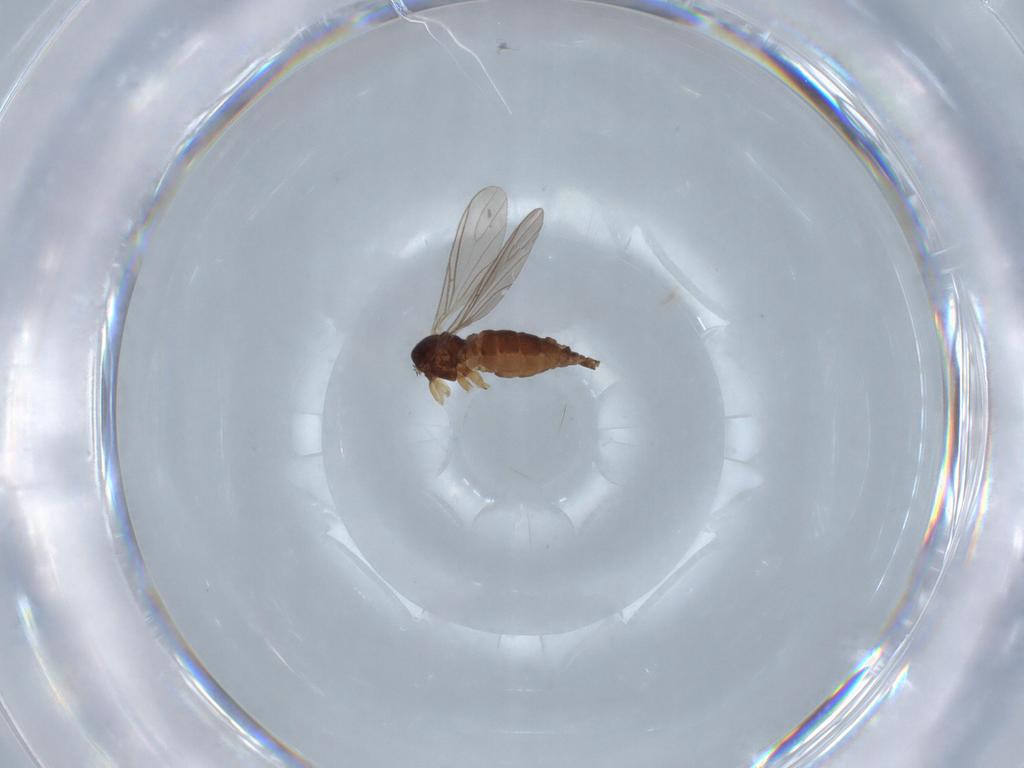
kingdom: Animalia
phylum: Arthropoda
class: Insecta
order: Diptera
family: Sciaridae
